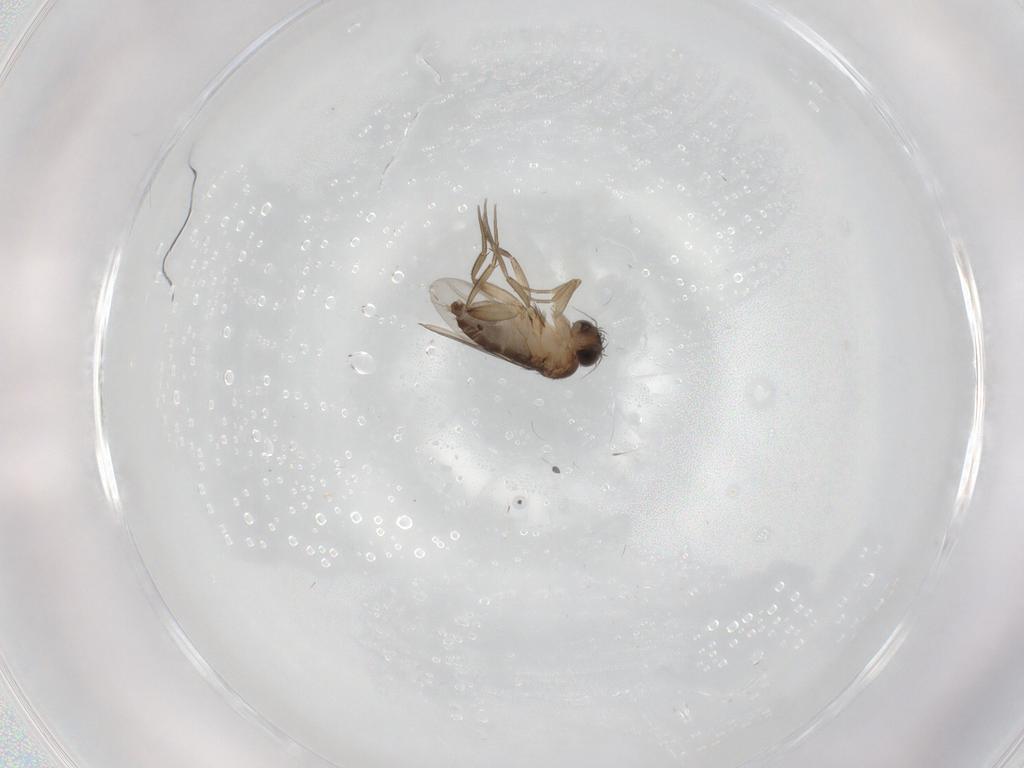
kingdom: Animalia
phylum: Arthropoda
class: Insecta
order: Diptera
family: Phoridae
